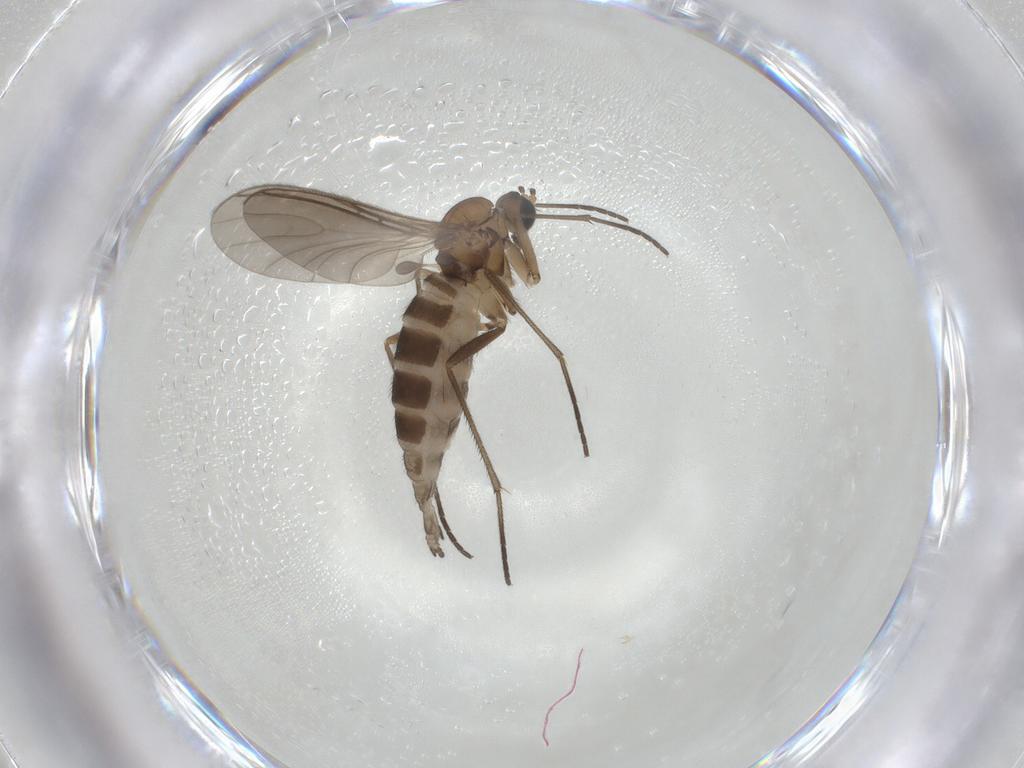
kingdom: Animalia
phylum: Arthropoda
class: Insecta
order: Diptera
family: Sciaridae
